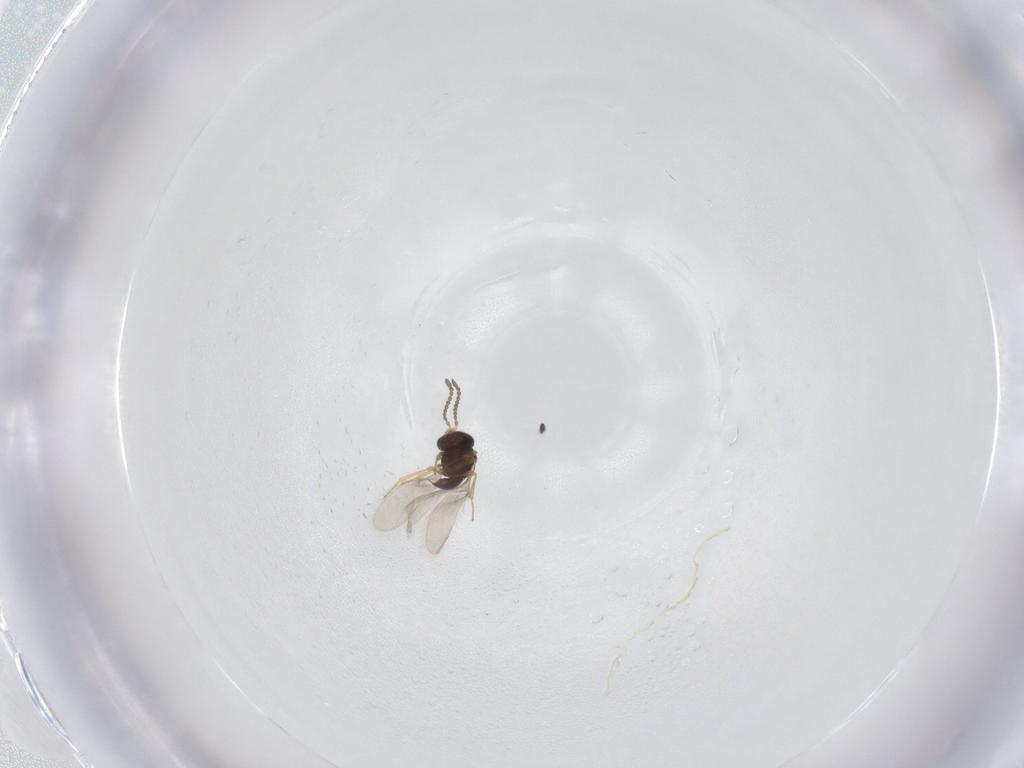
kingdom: Animalia
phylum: Arthropoda
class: Insecta
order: Hymenoptera
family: Scelionidae
